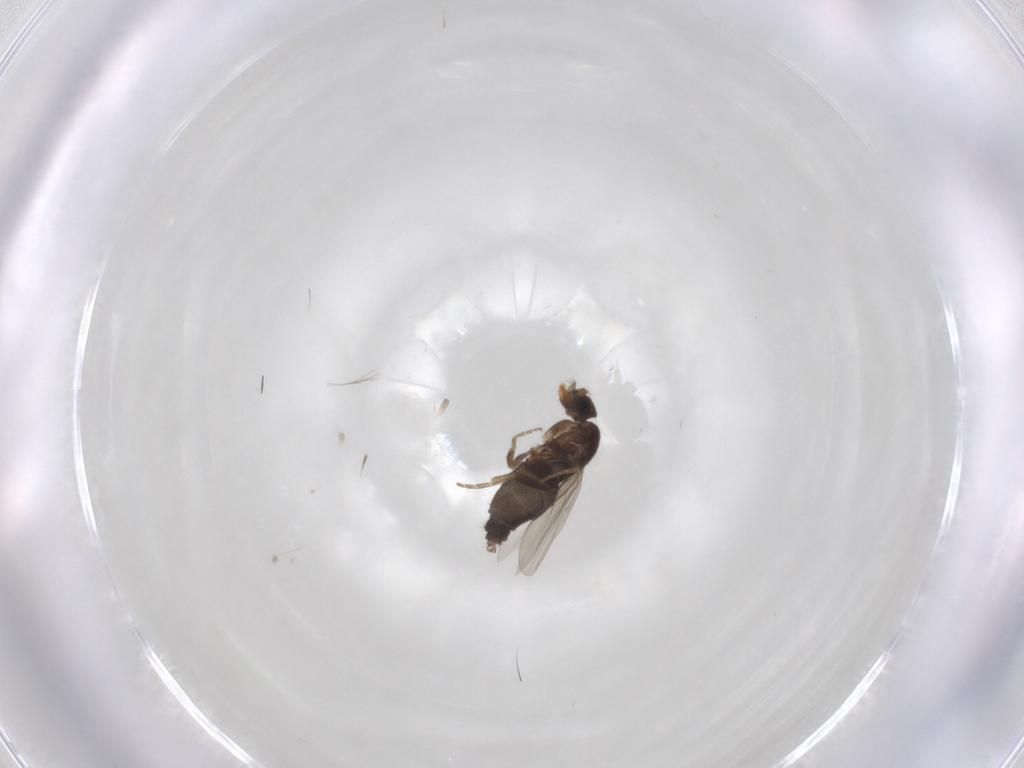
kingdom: Animalia
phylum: Arthropoda
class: Insecta
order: Diptera
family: Phoridae
